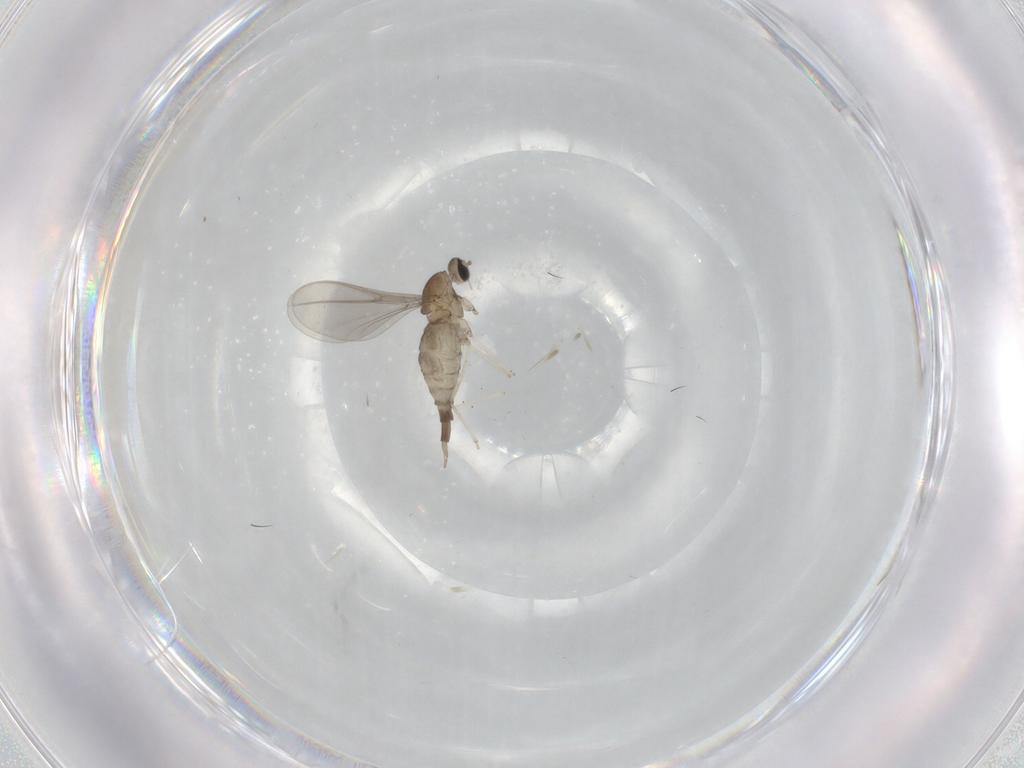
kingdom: Animalia
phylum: Arthropoda
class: Insecta
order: Diptera
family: Cecidomyiidae
